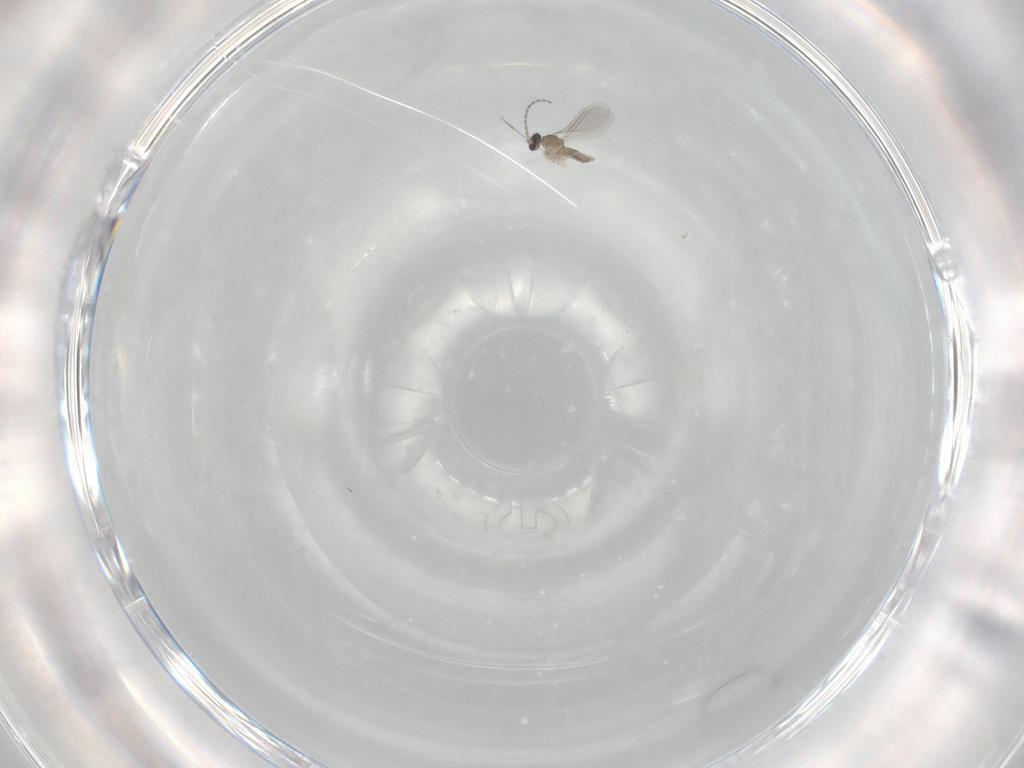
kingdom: Animalia
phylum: Arthropoda
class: Insecta
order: Diptera
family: Cecidomyiidae
